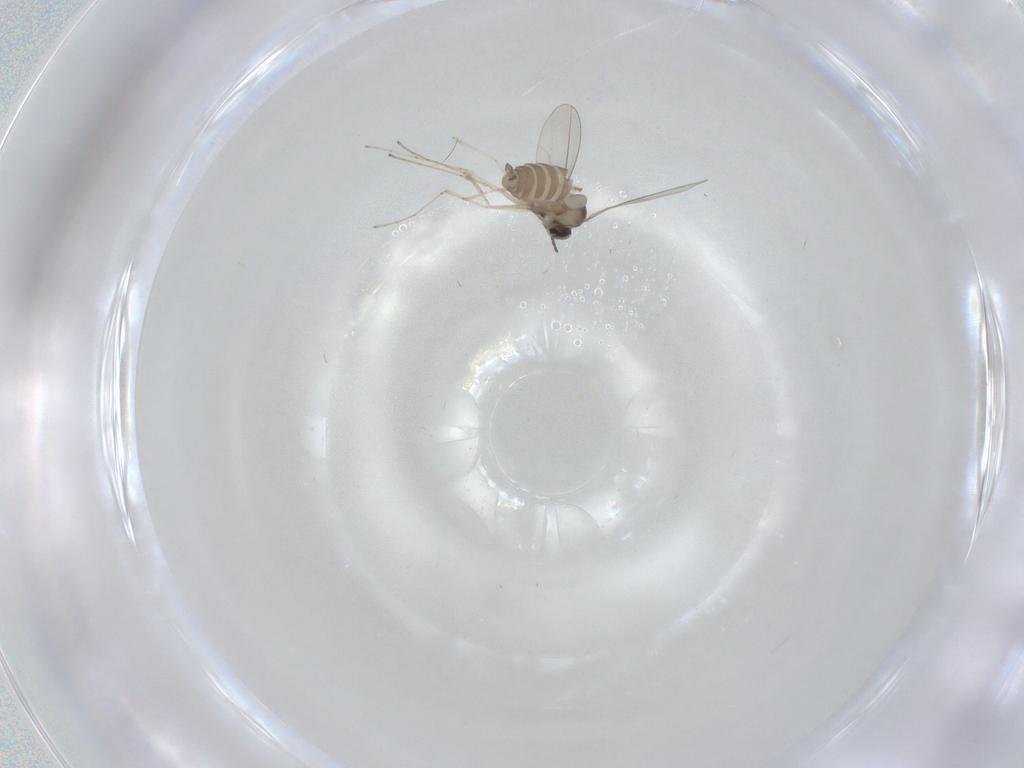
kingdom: Animalia
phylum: Arthropoda
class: Insecta
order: Diptera
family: Cecidomyiidae
